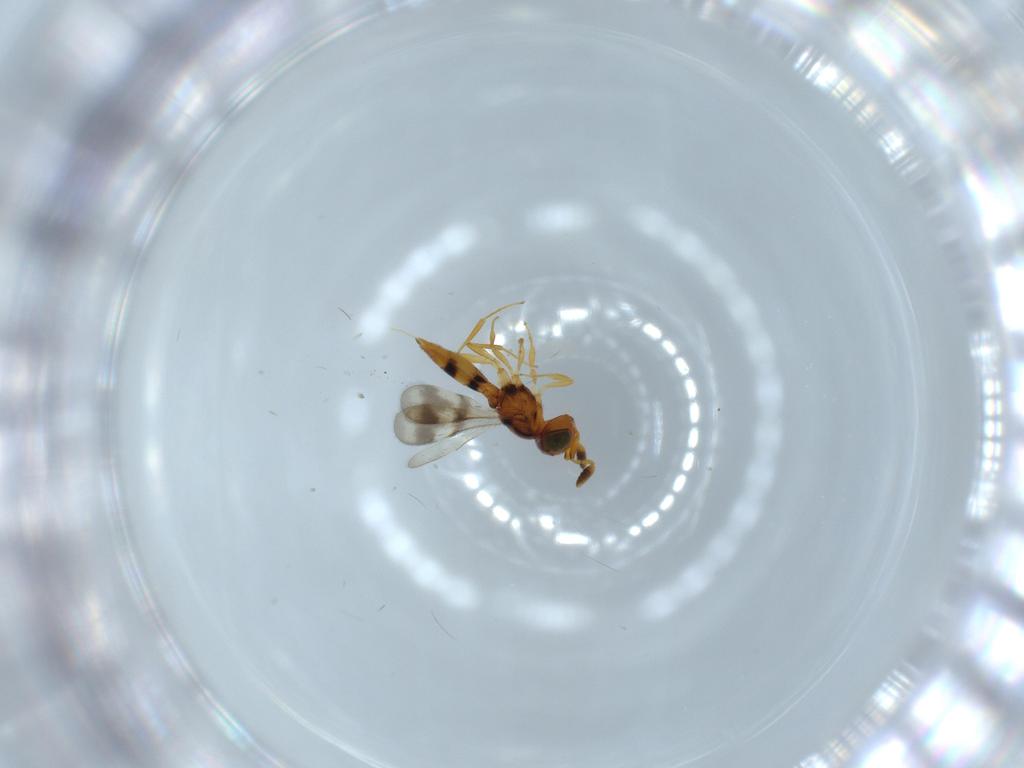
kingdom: Animalia
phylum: Arthropoda
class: Insecta
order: Hymenoptera
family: Scelionidae
